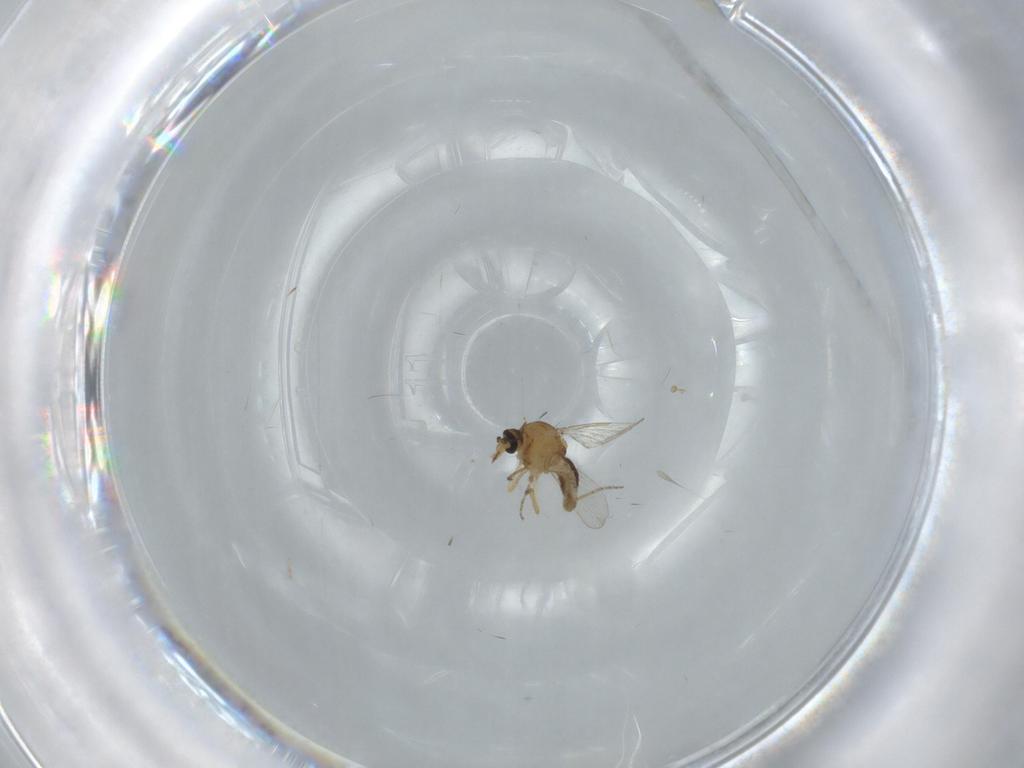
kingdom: Animalia
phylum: Arthropoda
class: Insecta
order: Diptera
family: Ceratopogonidae
